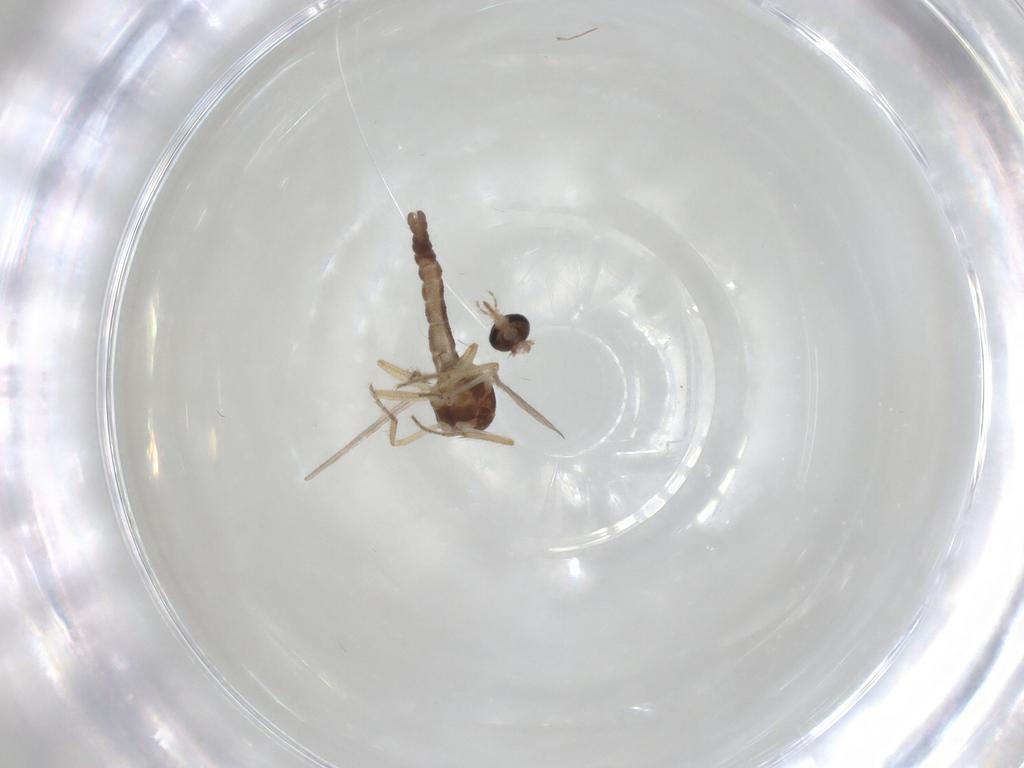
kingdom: Animalia
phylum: Arthropoda
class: Insecta
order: Diptera
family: Ceratopogonidae
